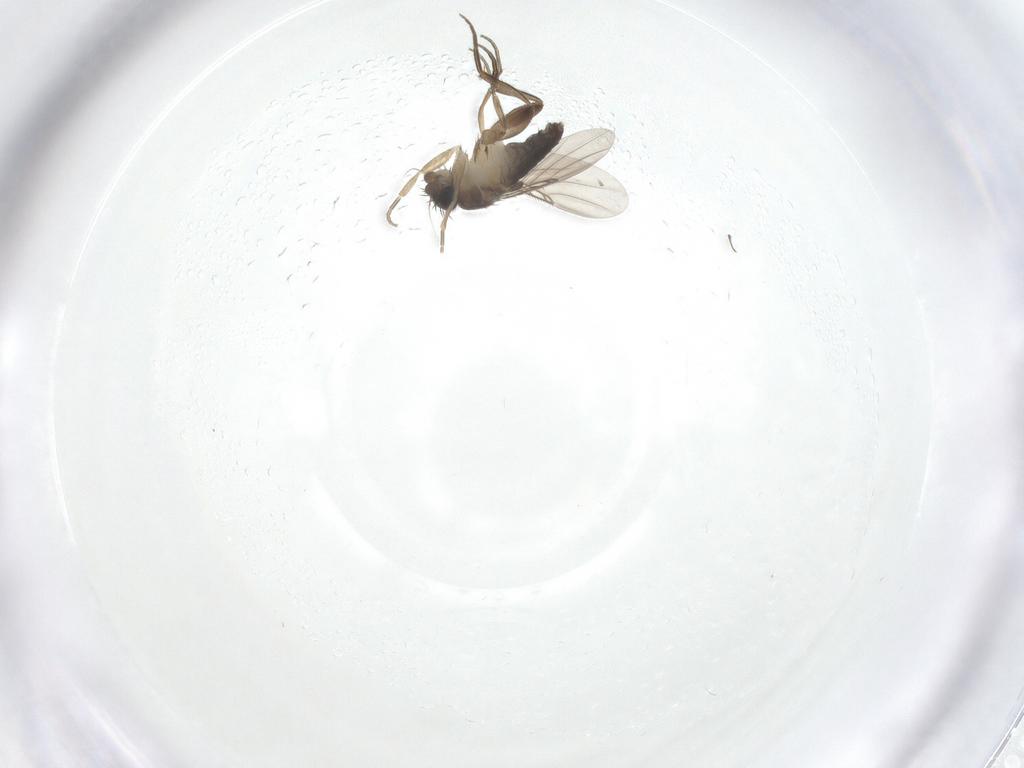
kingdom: Animalia
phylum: Arthropoda
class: Insecta
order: Diptera
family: Phoridae
